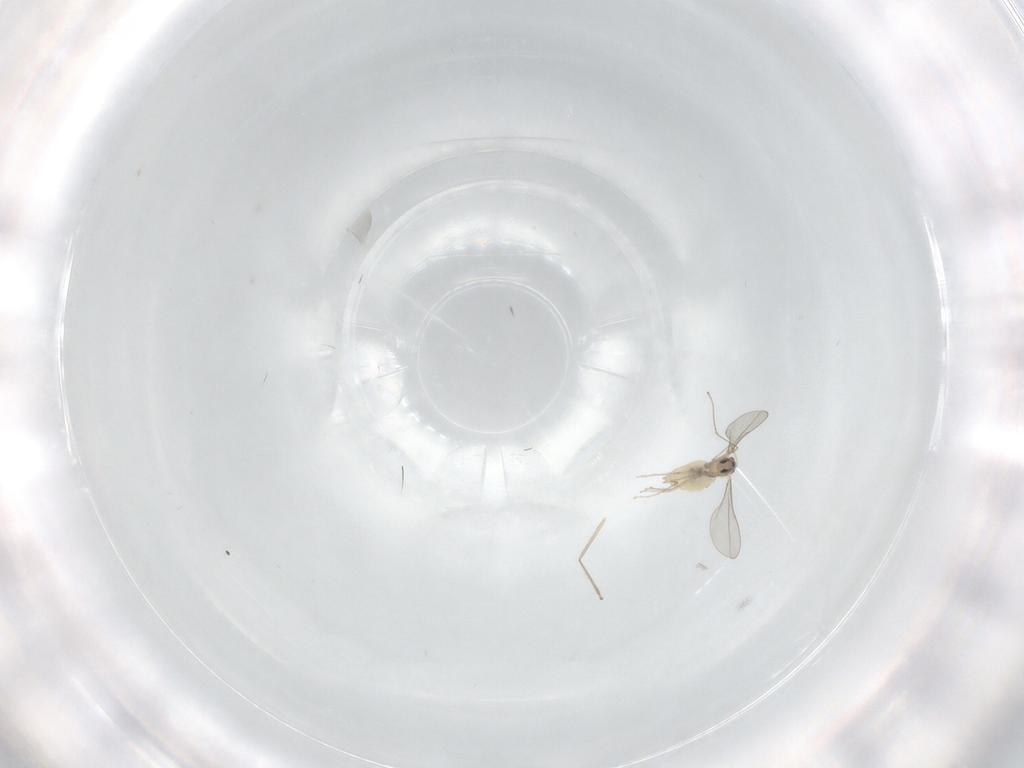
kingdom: Animalia
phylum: Arthropoda
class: Insecta
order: Diptera
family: Cecidomyiidae
